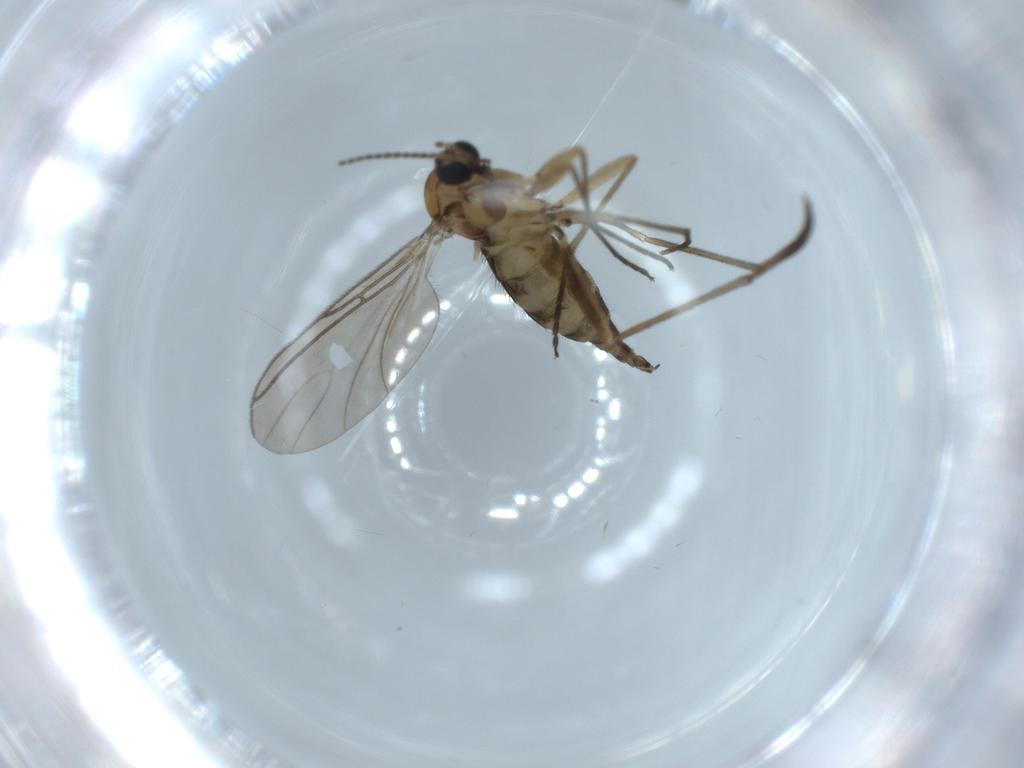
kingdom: Animalia
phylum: Arthropoda
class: Insecta
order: Diptera
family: Sciaridae
